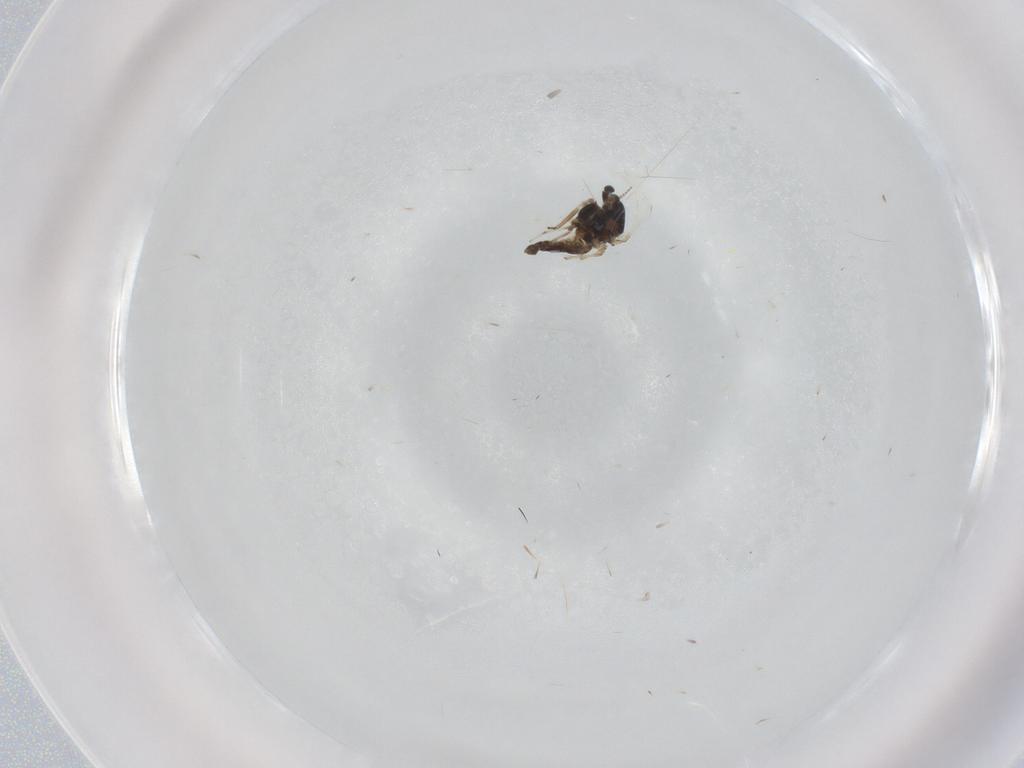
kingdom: Animalia
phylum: Arthropoda
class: Insecta
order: Diptera
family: Chironomidae
